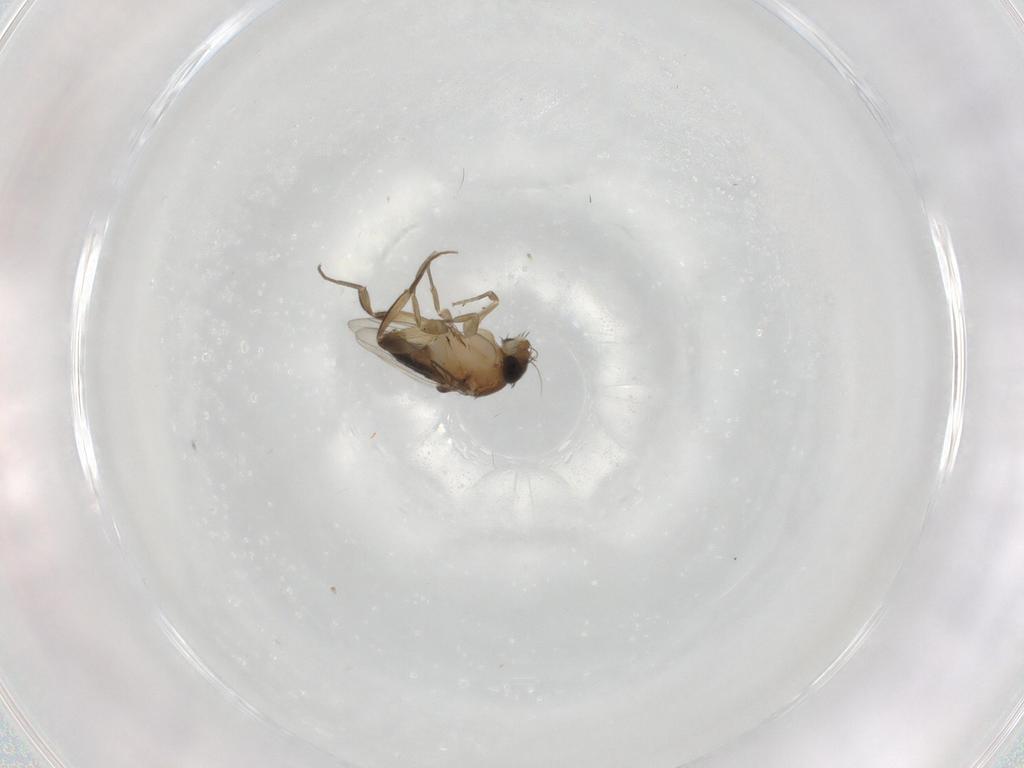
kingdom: Animalia
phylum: Arthropoda
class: Insecta
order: Diptera
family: Phoridae
